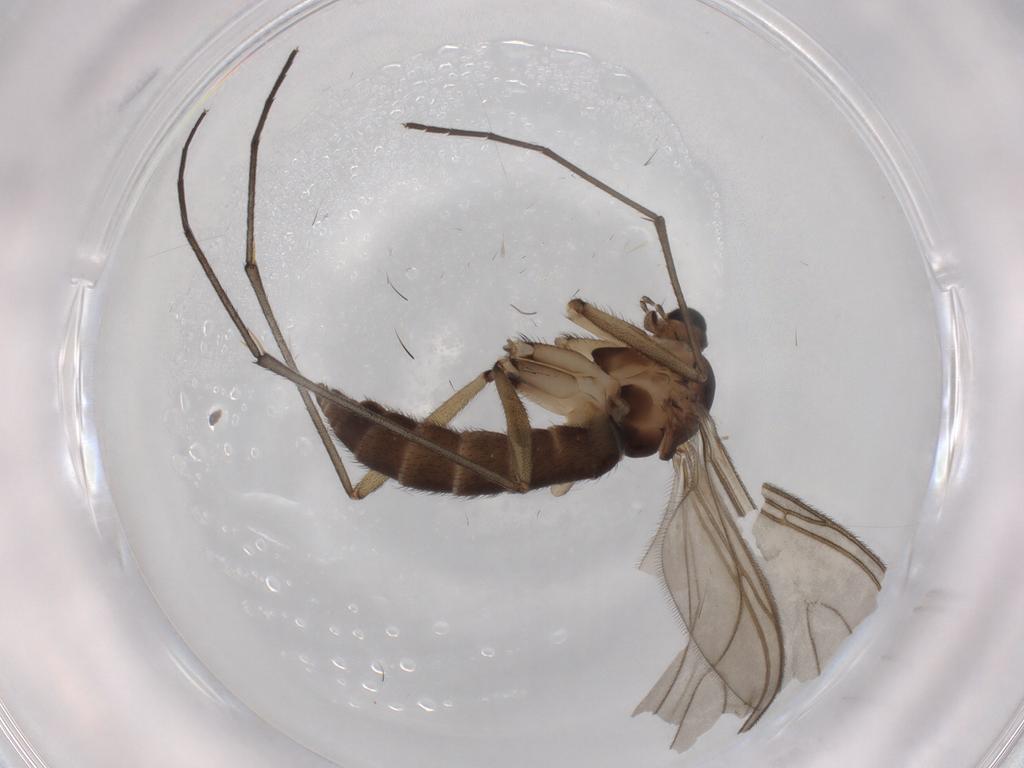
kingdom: Animalia
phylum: Arthropoda
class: Insecta
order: Diptera
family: Sciaridae
